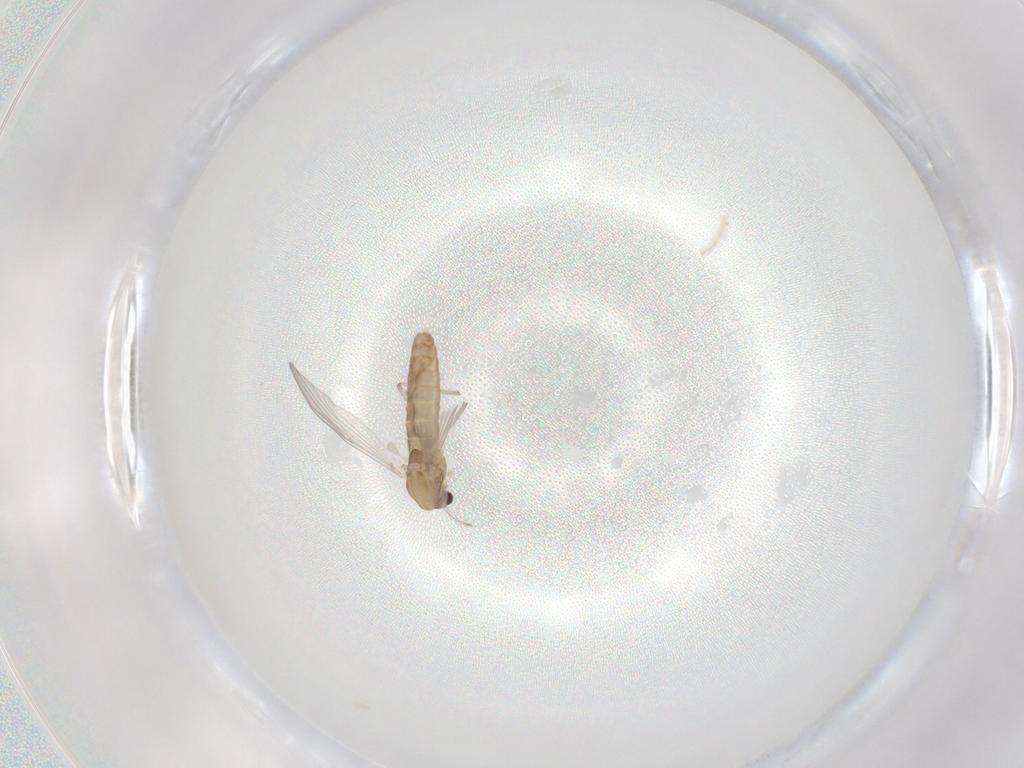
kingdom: Animalia
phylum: Arthropoda
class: Insecta
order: Diptera
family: Chironomidae
